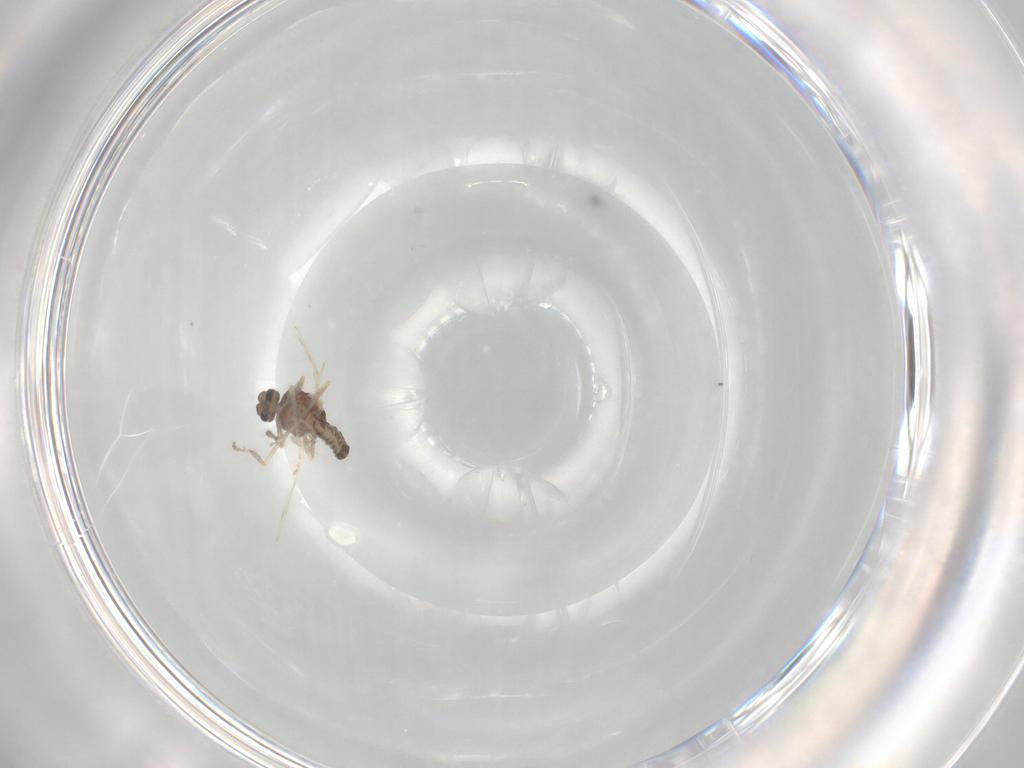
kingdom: Animalia
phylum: Arthropoda
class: Insecta
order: Diptera
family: Ceratopogonidae
